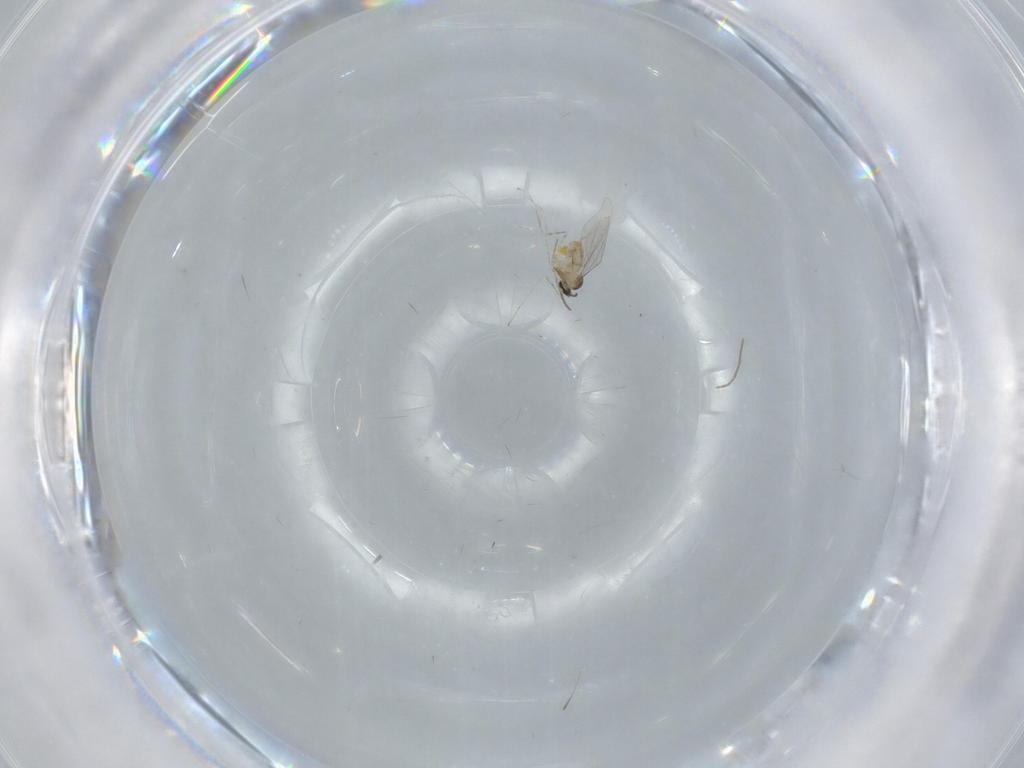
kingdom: Animalia
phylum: Arthropoda
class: Insecta
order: Diptera
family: Cecidomyiidae
